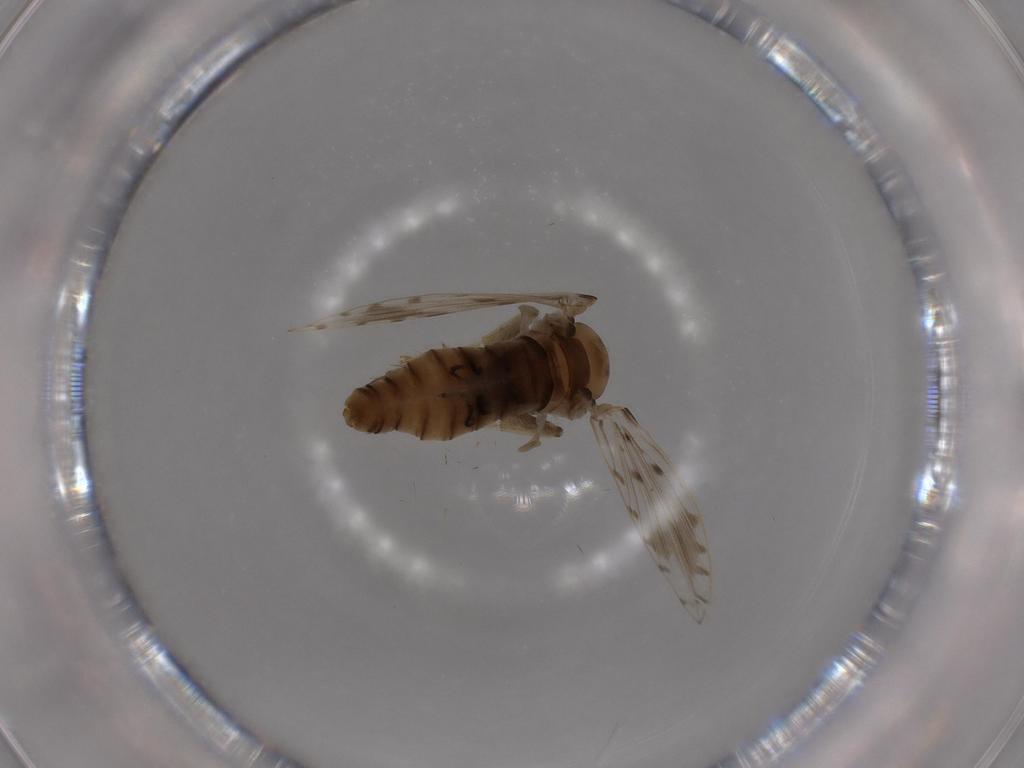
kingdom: Animalia
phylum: Arthropoda
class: Insecta
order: Diptera
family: Psychodidae
